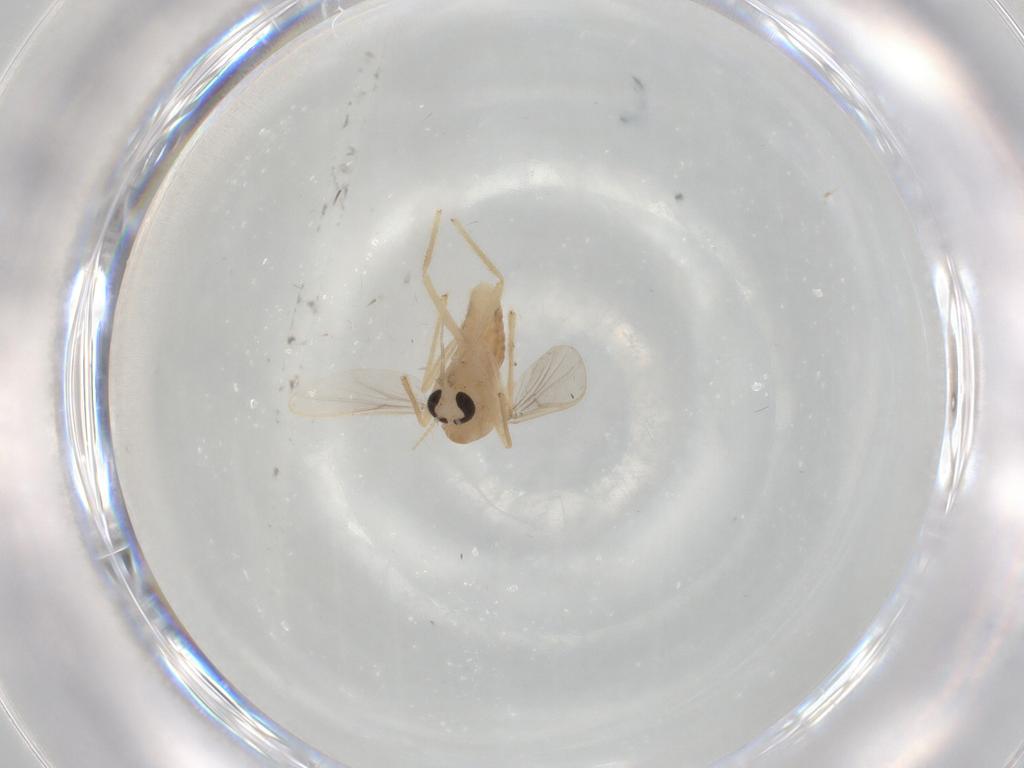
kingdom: Animalia
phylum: Arthropoda
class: Insecta
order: Diptera
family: Chironomidae
